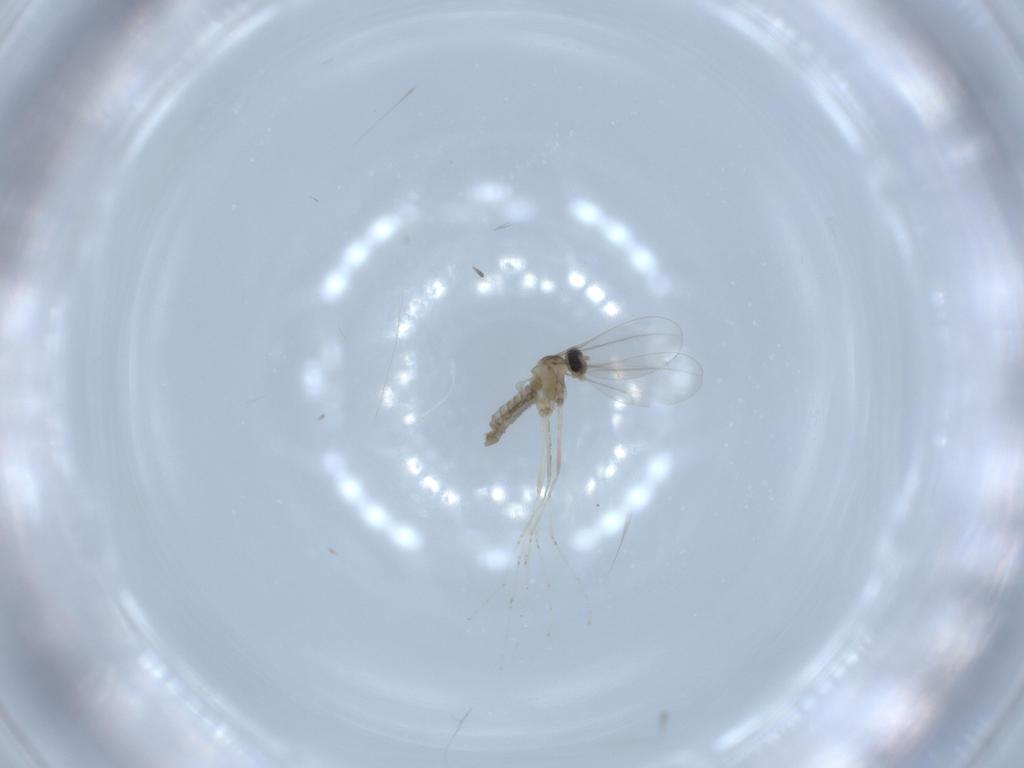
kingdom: Animalia
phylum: Arthropoda
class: Insecta
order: Diptera
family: Cecidomyiidae
